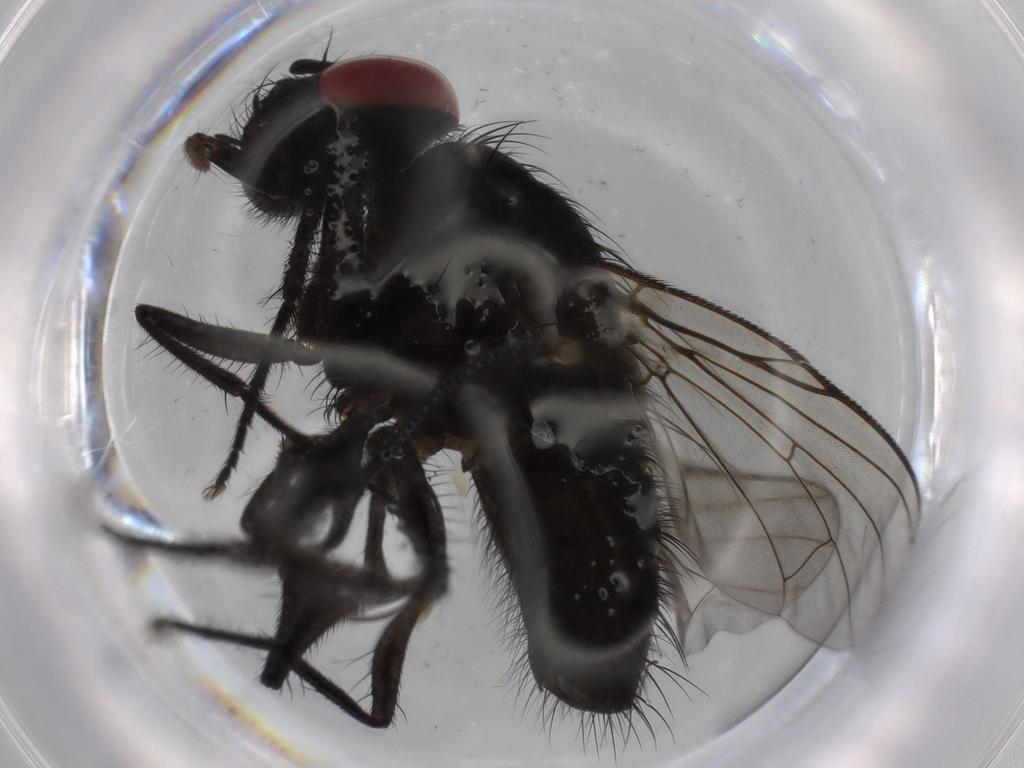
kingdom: Animalia
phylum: Arthropoda
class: Insecta
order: Diptera
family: Muscidae
